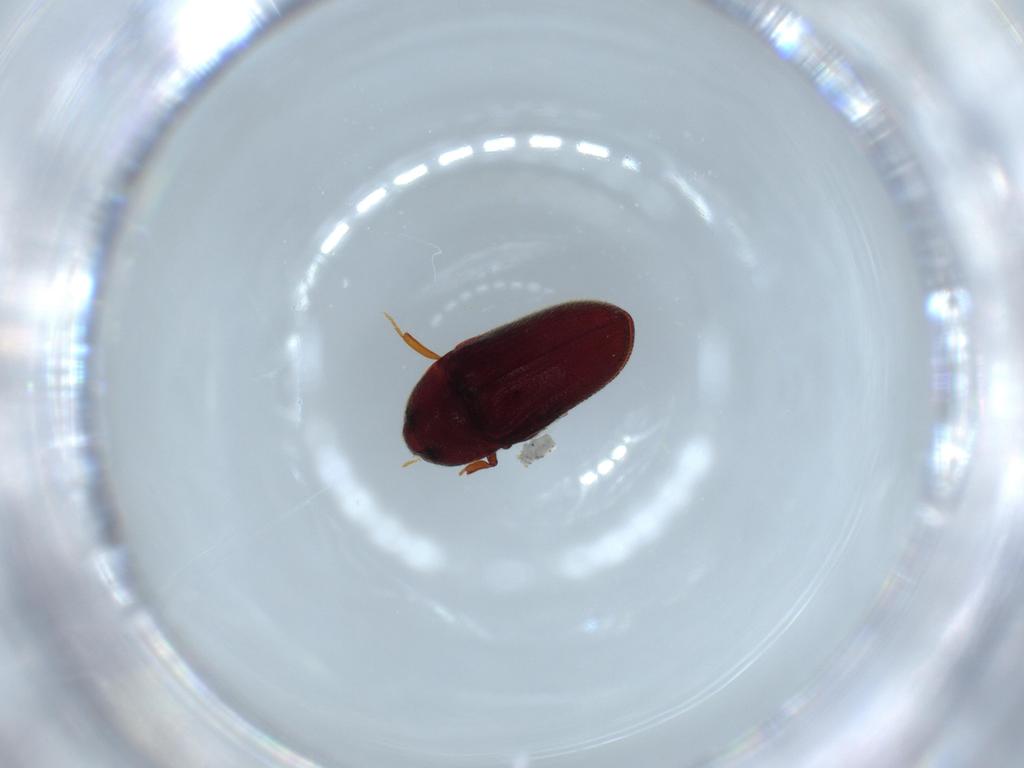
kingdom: Animalia
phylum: Arthropoda
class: Insecta
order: Coleoptera
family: Throscidae
